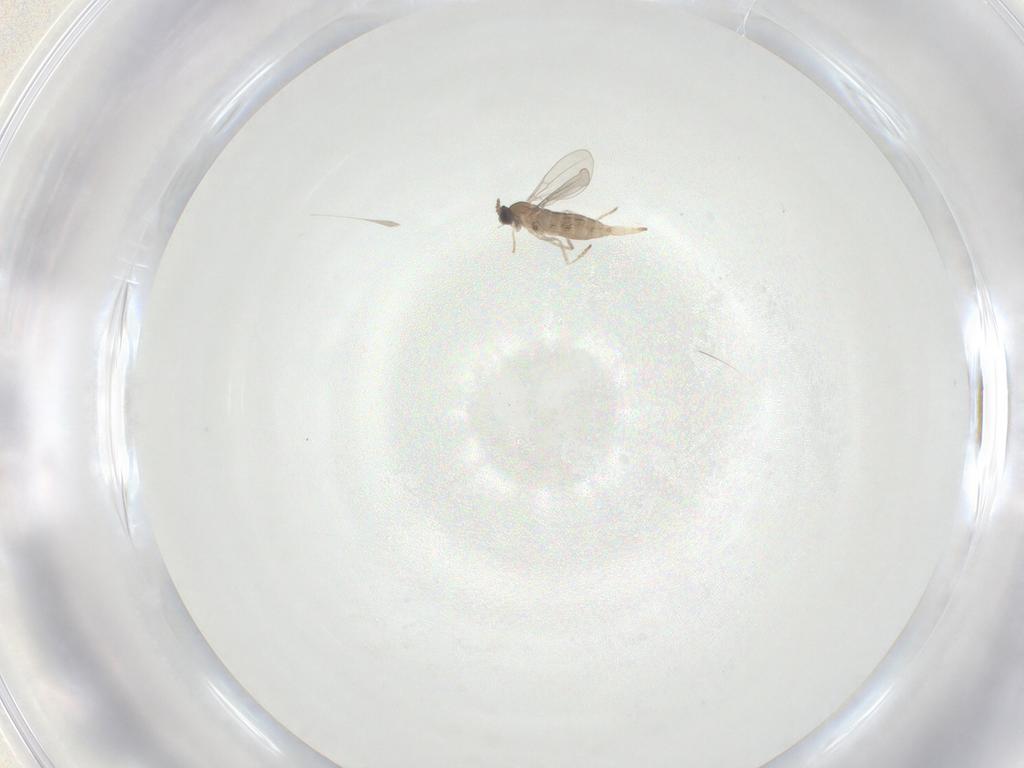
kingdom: Animalia
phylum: Arthropoda
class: Insecta
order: Diptera
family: Cecidomyiidae
